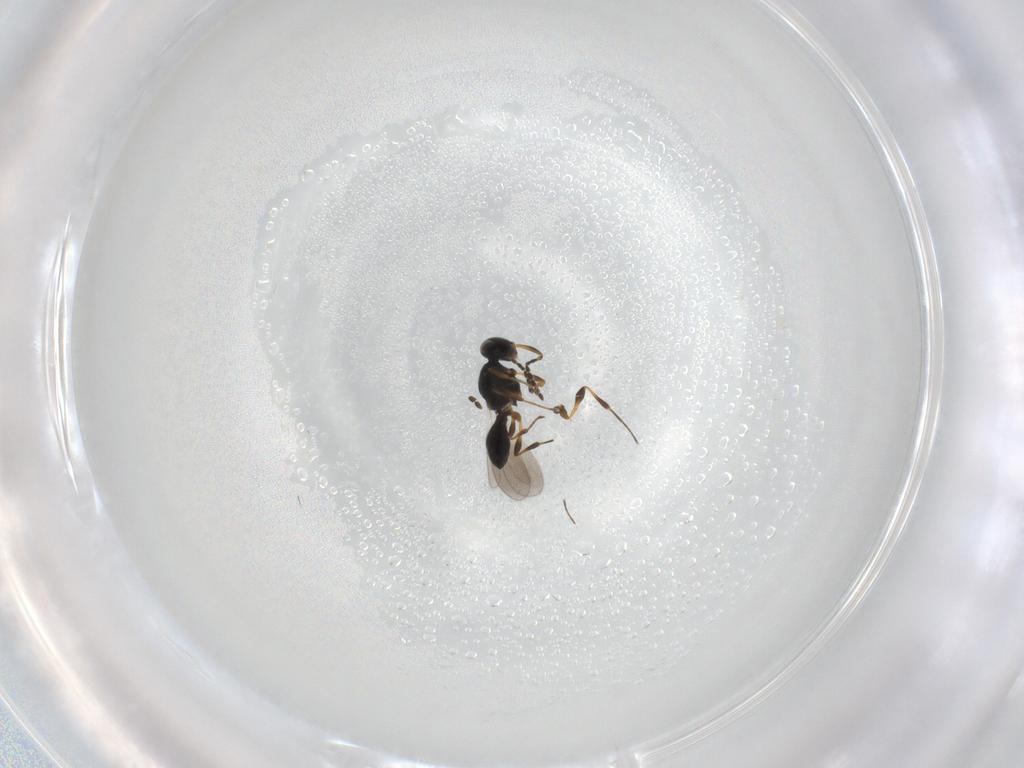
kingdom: Animalia
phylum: Arthropoda
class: Insecta
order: Hymenoptera
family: Platygastridae
